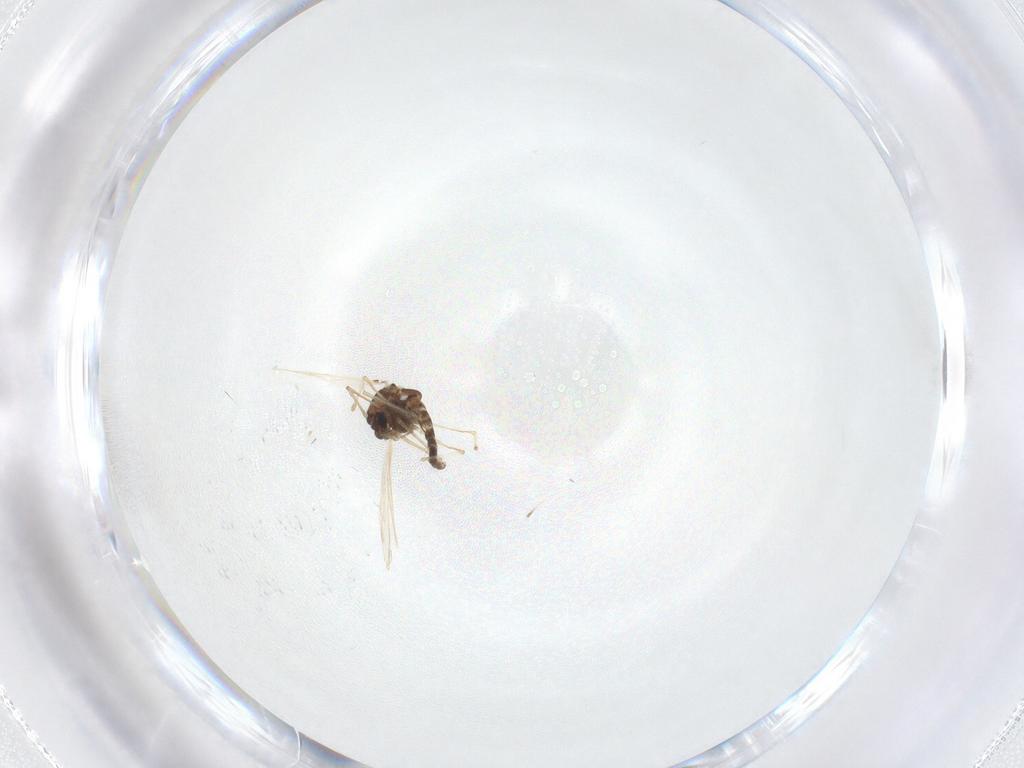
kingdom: Animalia
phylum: Arthropoda
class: Insecta
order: Diptera
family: Chironomidae
